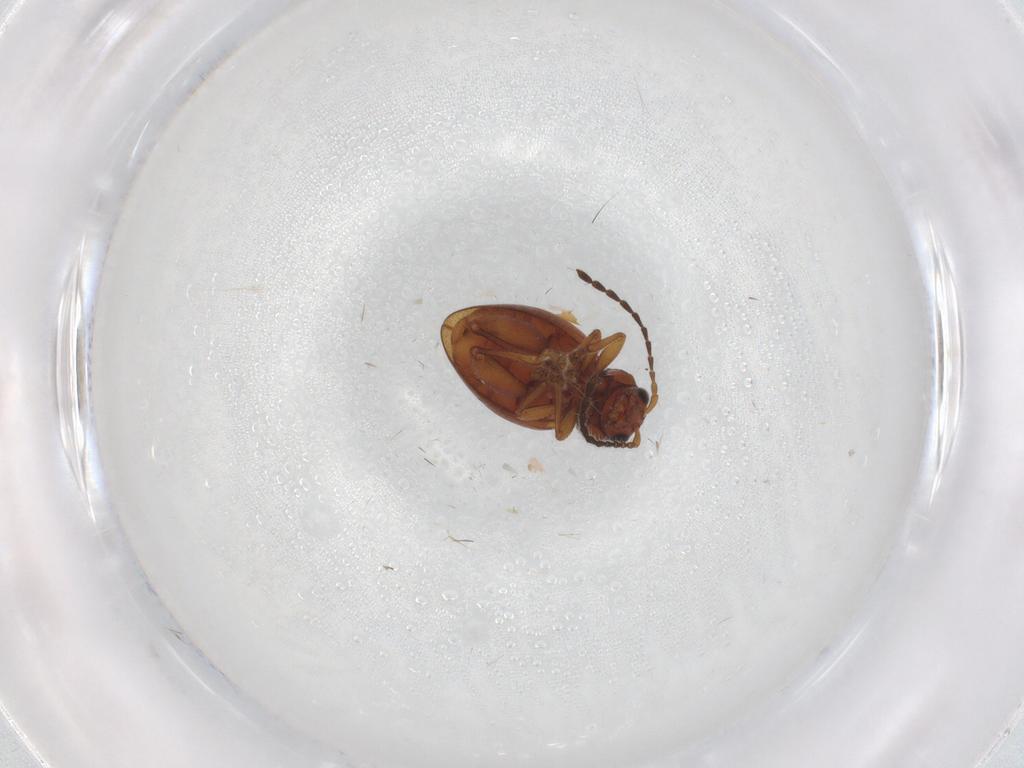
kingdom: Animalia
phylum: Arthropoda
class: Insecta
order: Coleoptera
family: Chrysomelidae
